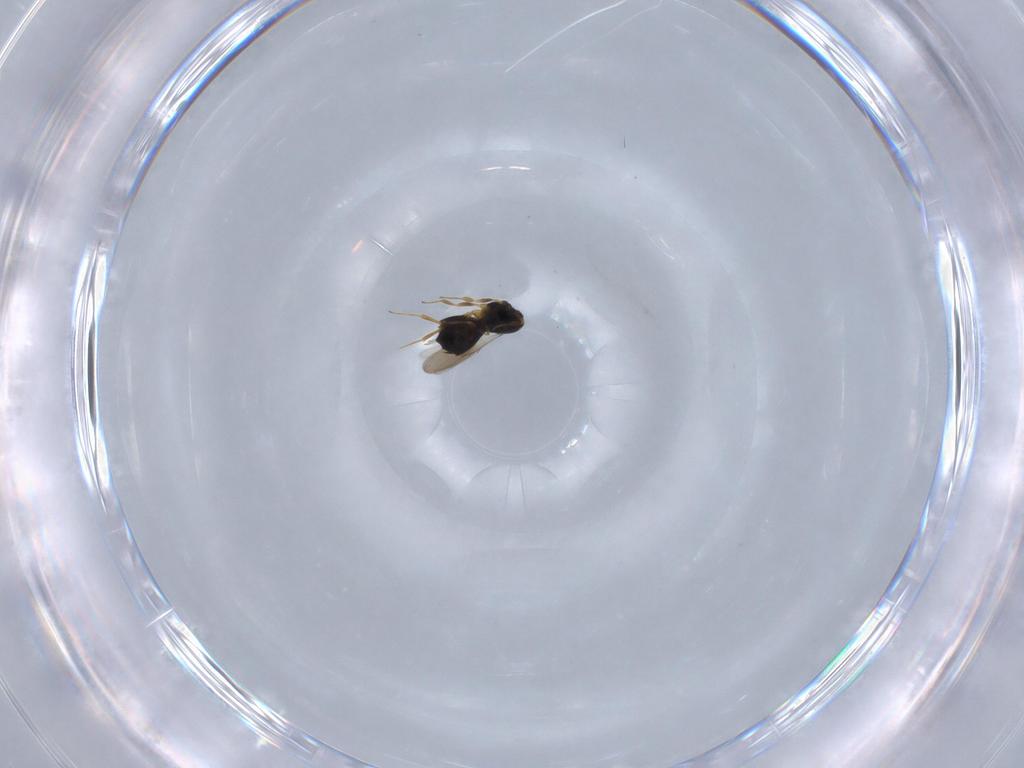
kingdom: Animalia
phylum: Arthropoda
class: Insecta
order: Hymenoptera
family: Scelionidae
